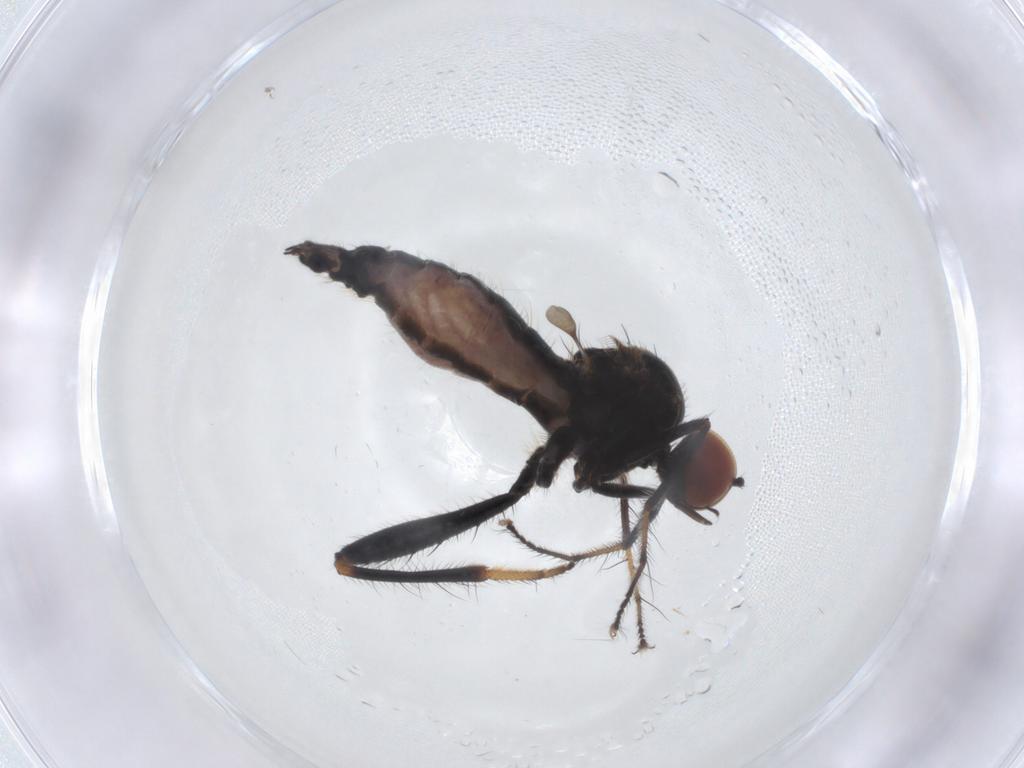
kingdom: Animalia
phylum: Arthropoda
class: Insecta
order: Diptera
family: Hybotidae
